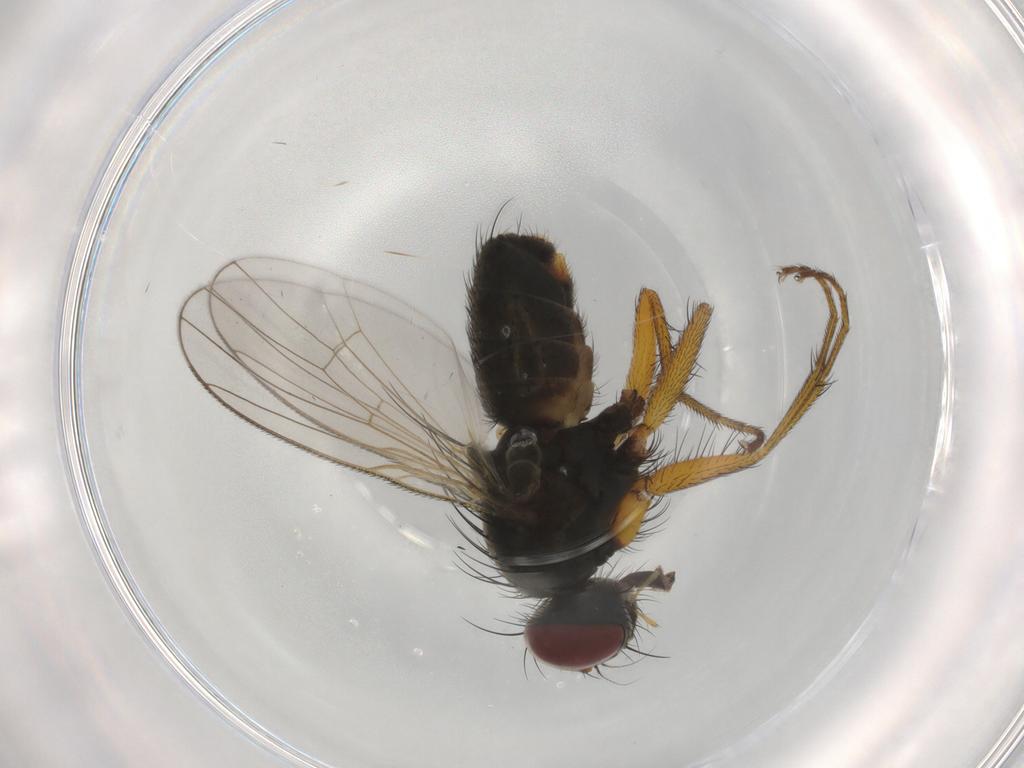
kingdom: Animalia
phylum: Arthropoda
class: Insecta
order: Diptera
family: Muscidae
